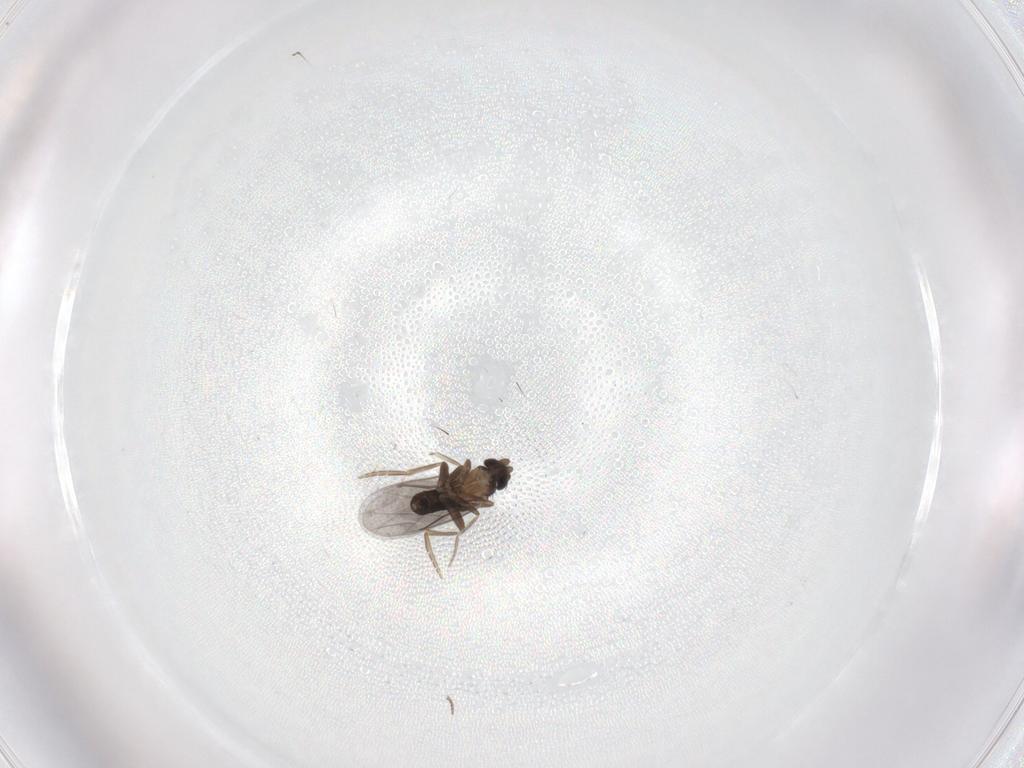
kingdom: Animalia
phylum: Arthropoda
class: Insecta
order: Diptera
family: Phoridae
